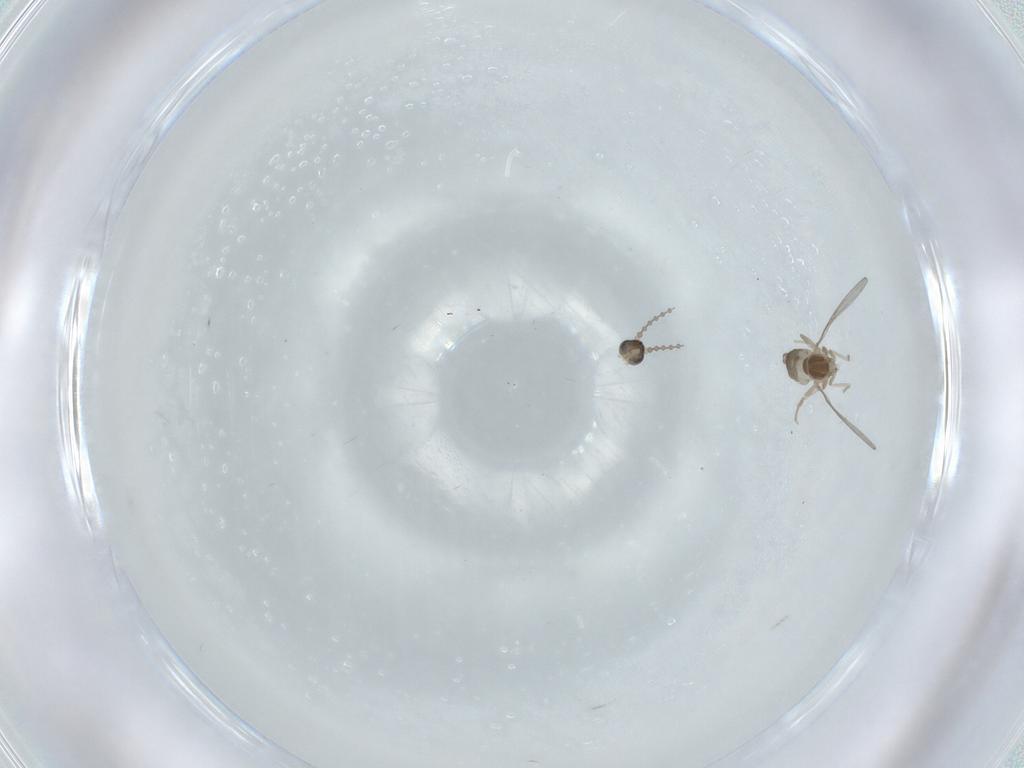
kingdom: Animalia
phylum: Arthropoda
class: Insecta
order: Diptera
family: Cecidomyiidae
